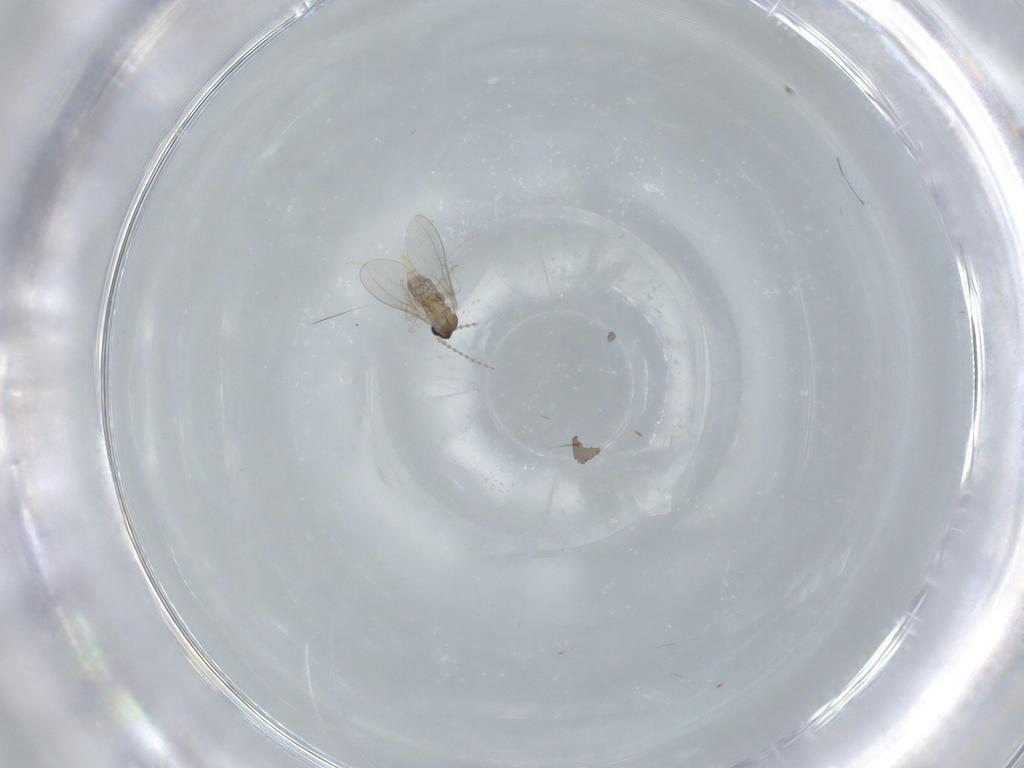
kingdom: Animalia
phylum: Arthropoda
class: Insecta
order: Diptera
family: Cecidomyiidae
